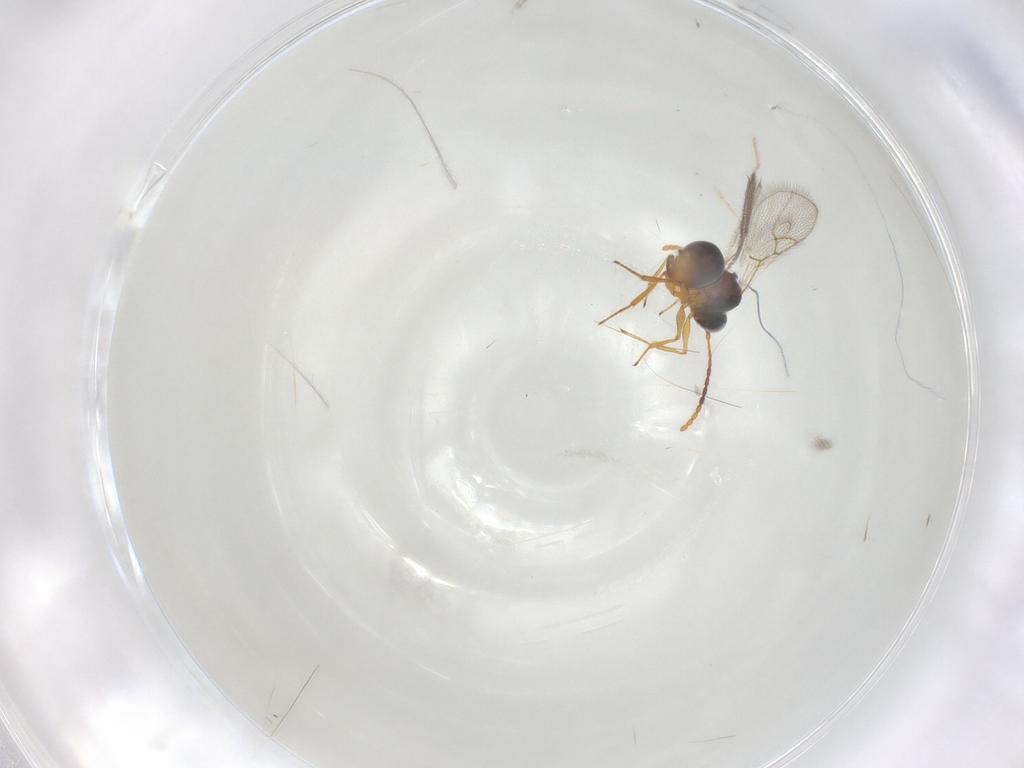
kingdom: Animalia
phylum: Arthropoda
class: Insecta
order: Hymenoptera
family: Figitidae
